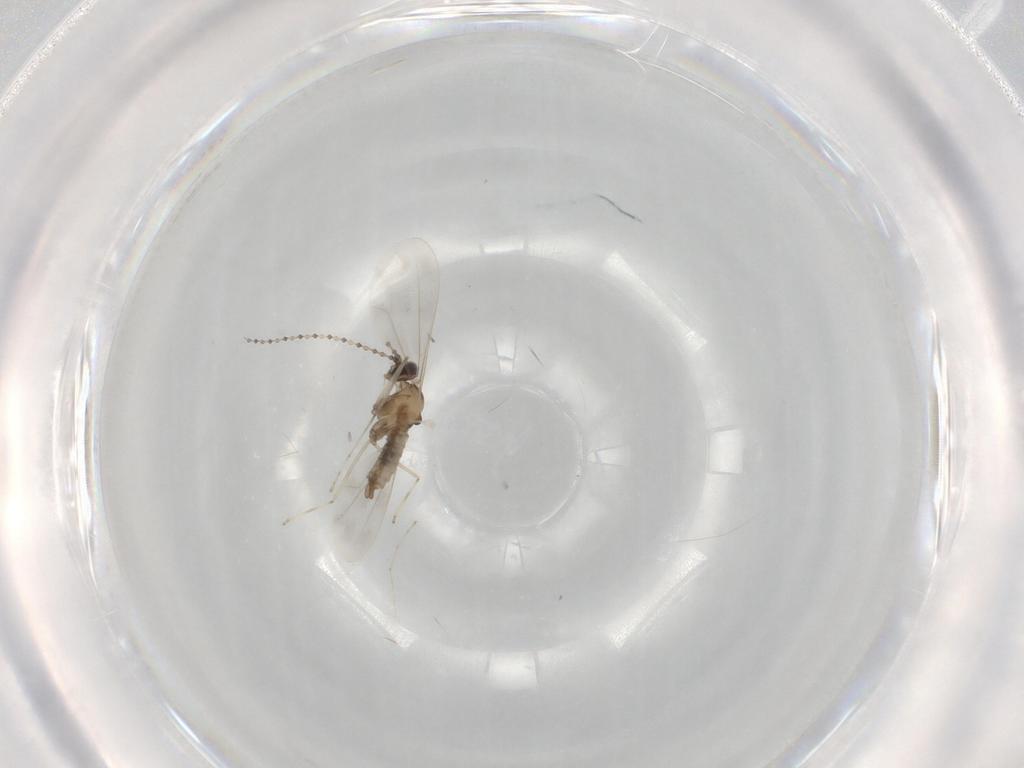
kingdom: Animalia
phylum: Arthropoda
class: Insecta
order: Diptera
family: Cecidomyiidae
